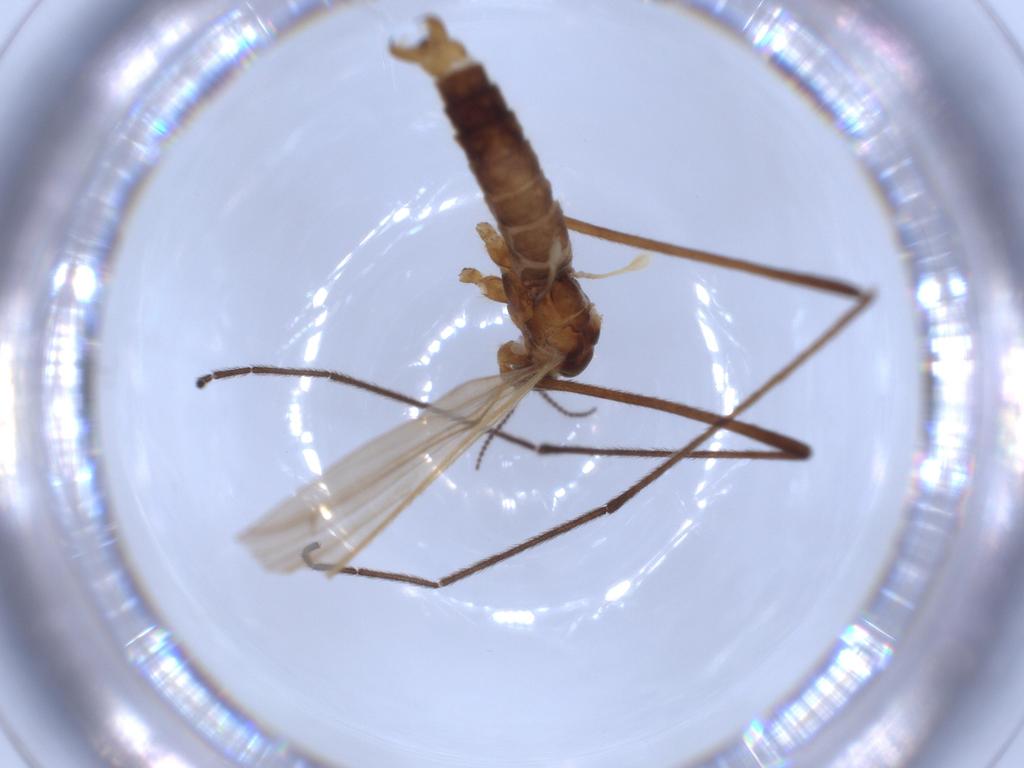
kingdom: Animalia
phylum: Arthropoda
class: Insecta
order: Diptera
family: Limoniidae
